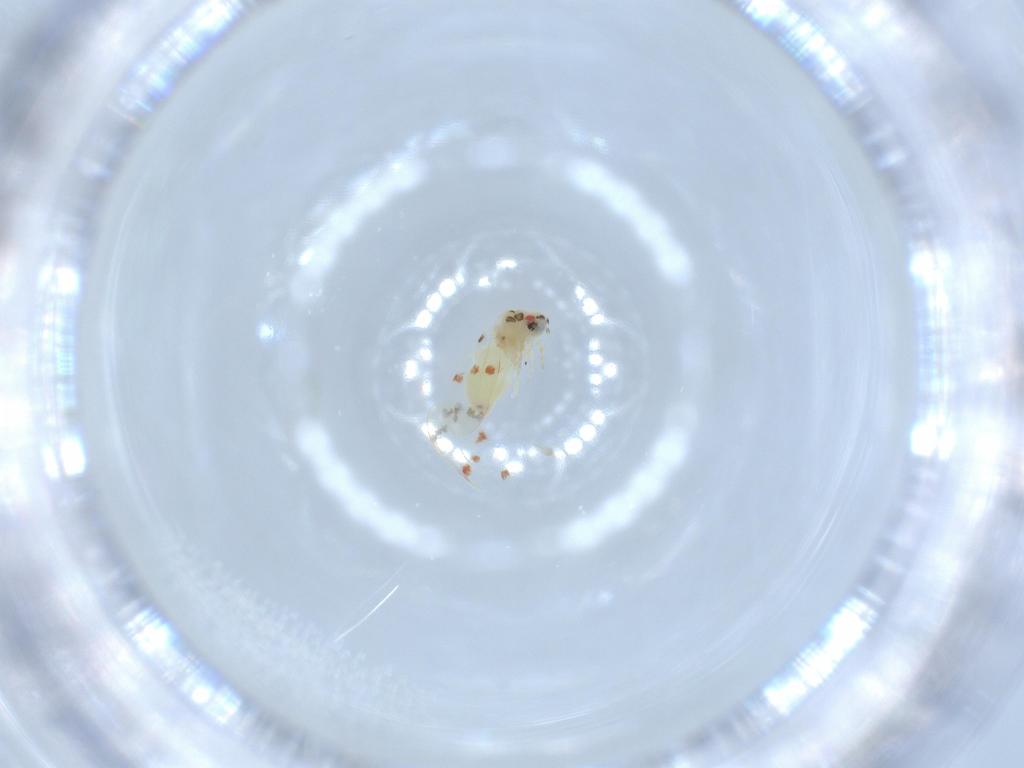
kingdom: Animalia
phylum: Arthropoda
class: Insecta
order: Hemiptera
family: Aleyrodidae
